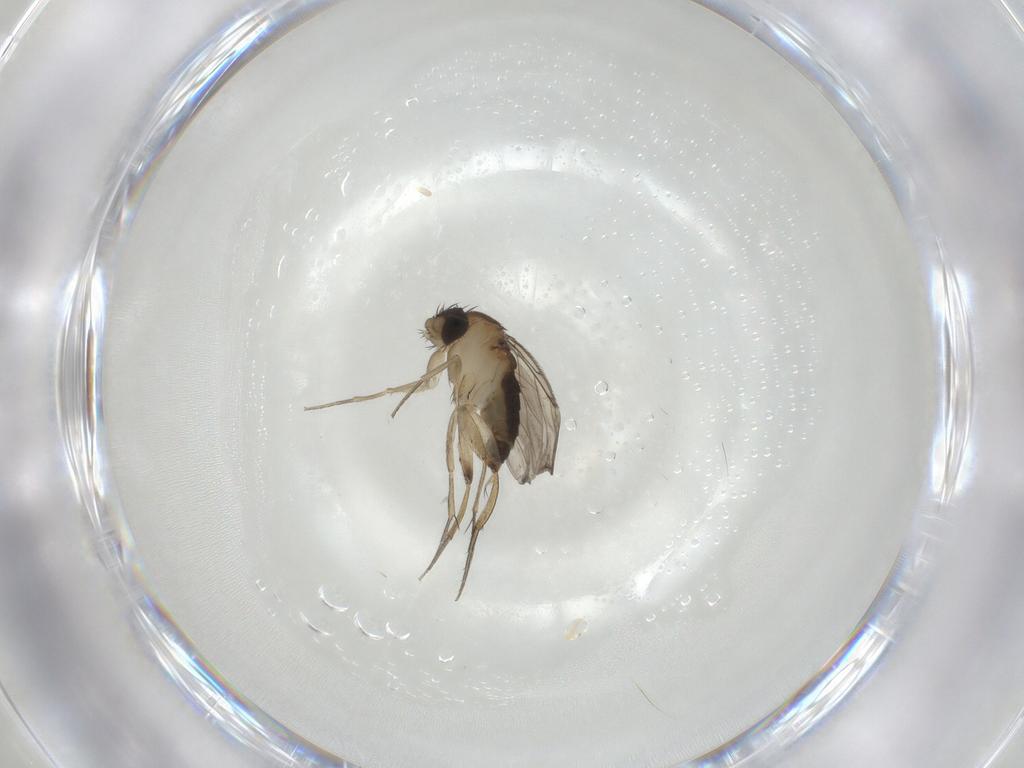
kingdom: Animalia
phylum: Arthropoda
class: Insecta
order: Diptera
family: Phoridae
